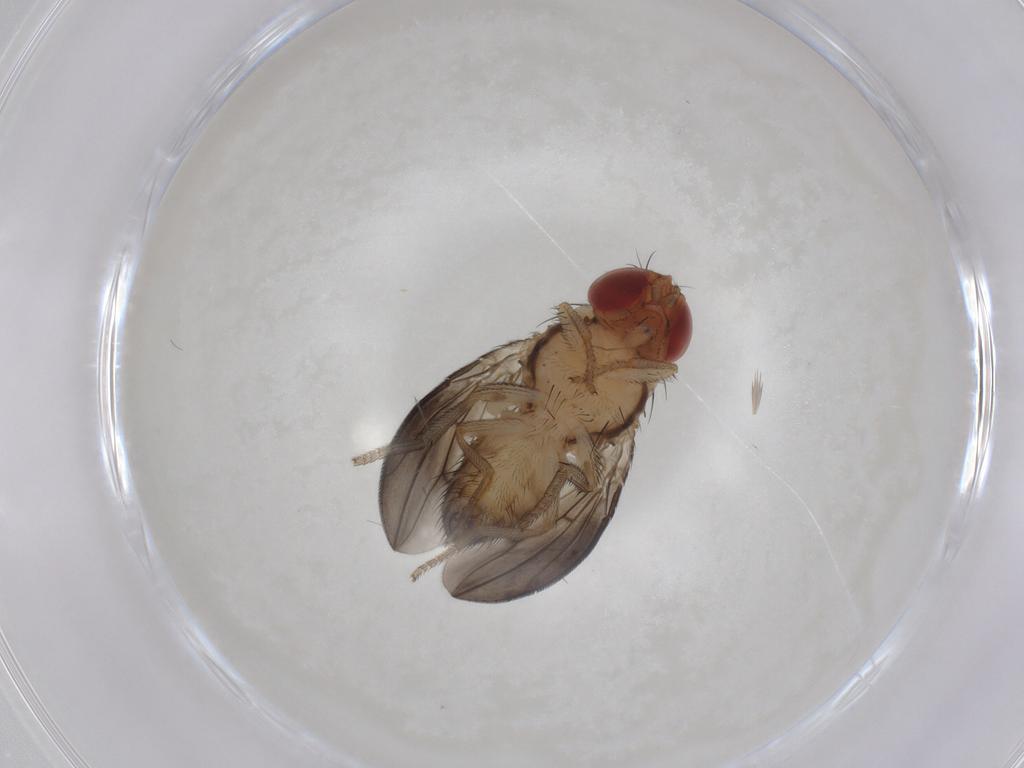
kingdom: Animalia
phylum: Arthropoda
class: Insecta
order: Diptera
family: Drosophilidae
